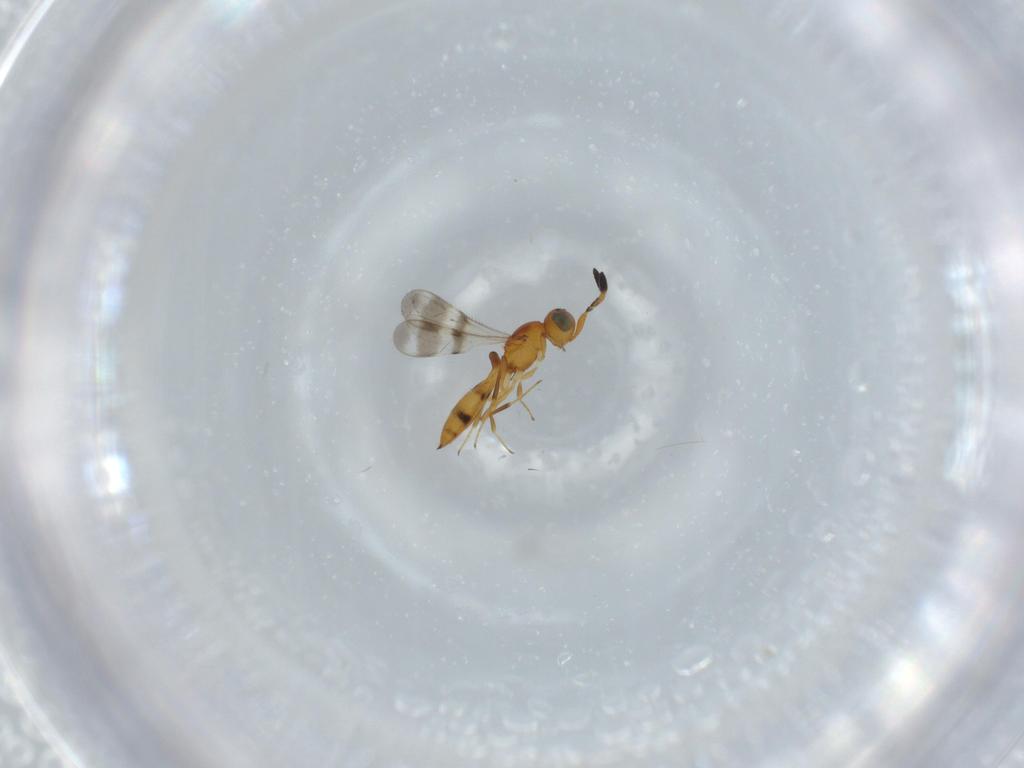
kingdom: Animalia
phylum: Arthropoda
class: Insecta
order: Hymenoptera
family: Scelionidae
